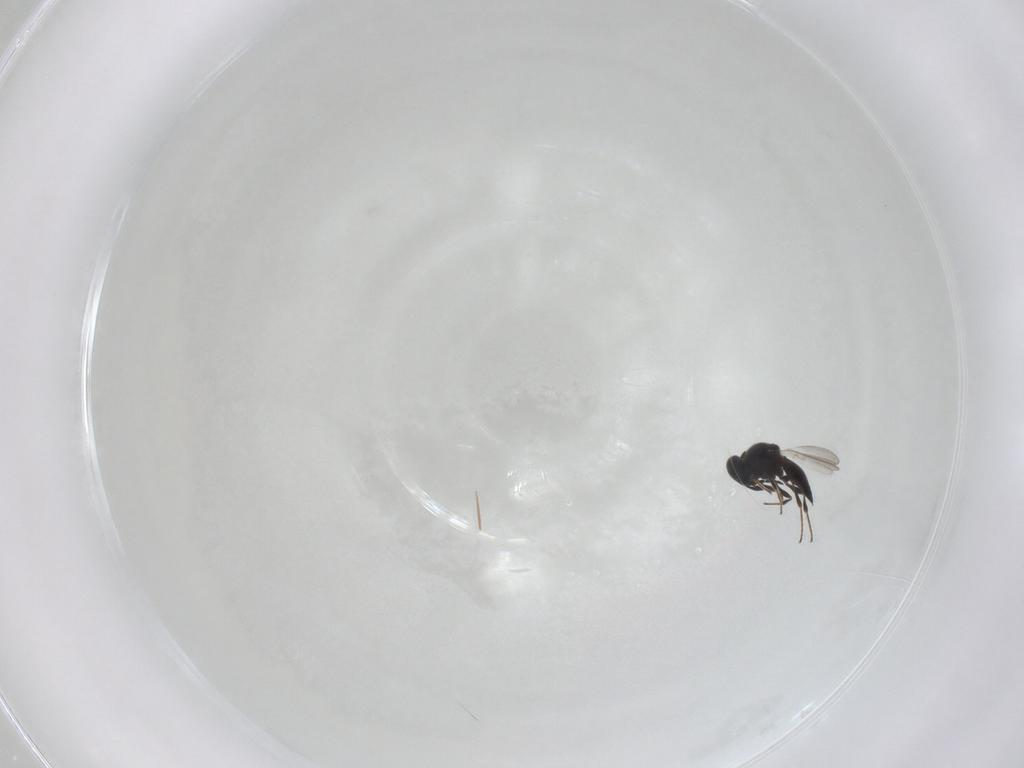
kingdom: Animalia
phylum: Arthropoda
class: Insecta
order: Hymenoptera
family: Platygastridae
